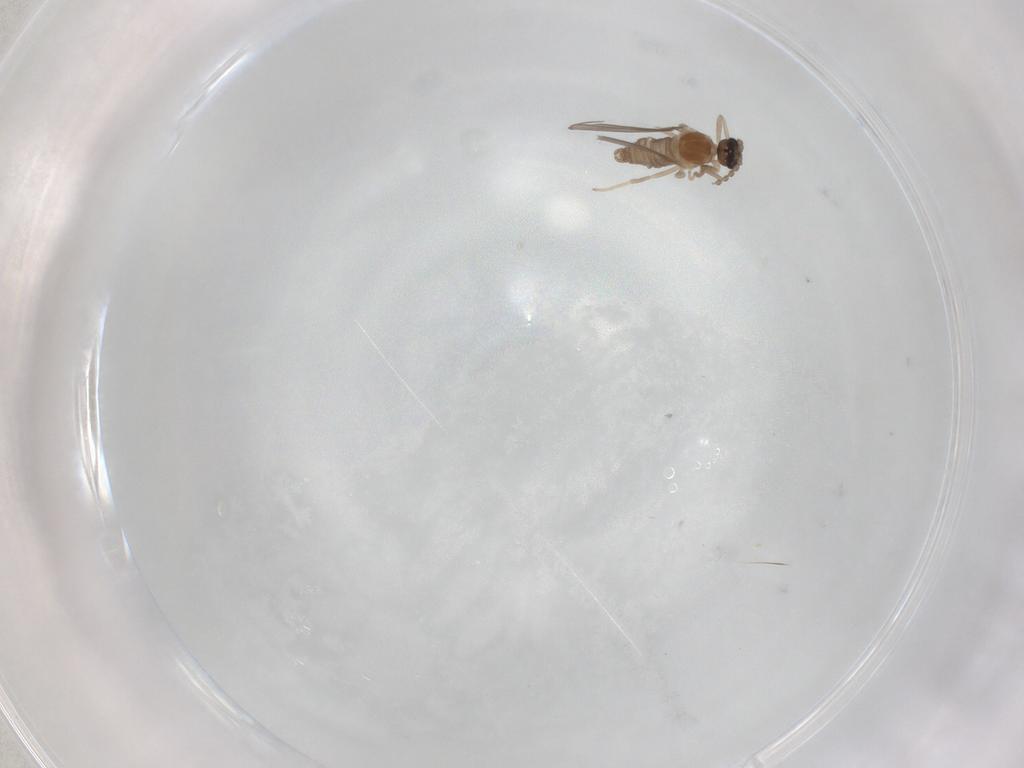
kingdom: Animalia
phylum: Arthropoda
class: Insecta
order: Diptera
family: Cecidomyiidae
